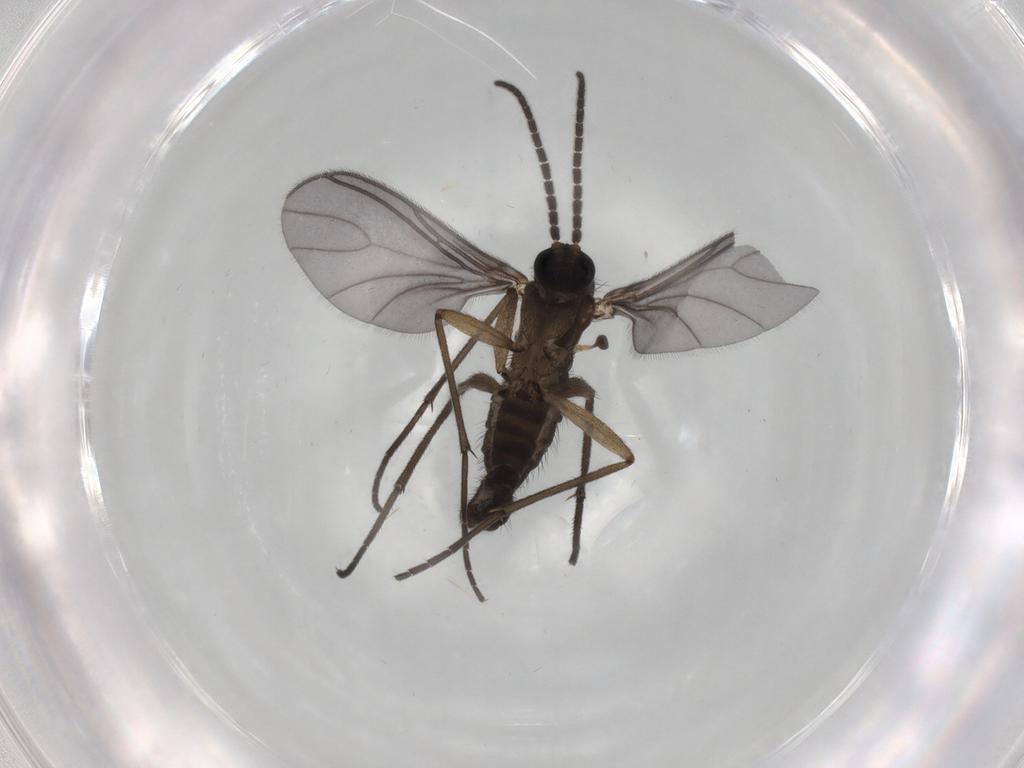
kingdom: Animalia
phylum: Arthropoda
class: Insecta
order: Diptera
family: Sciaridae
